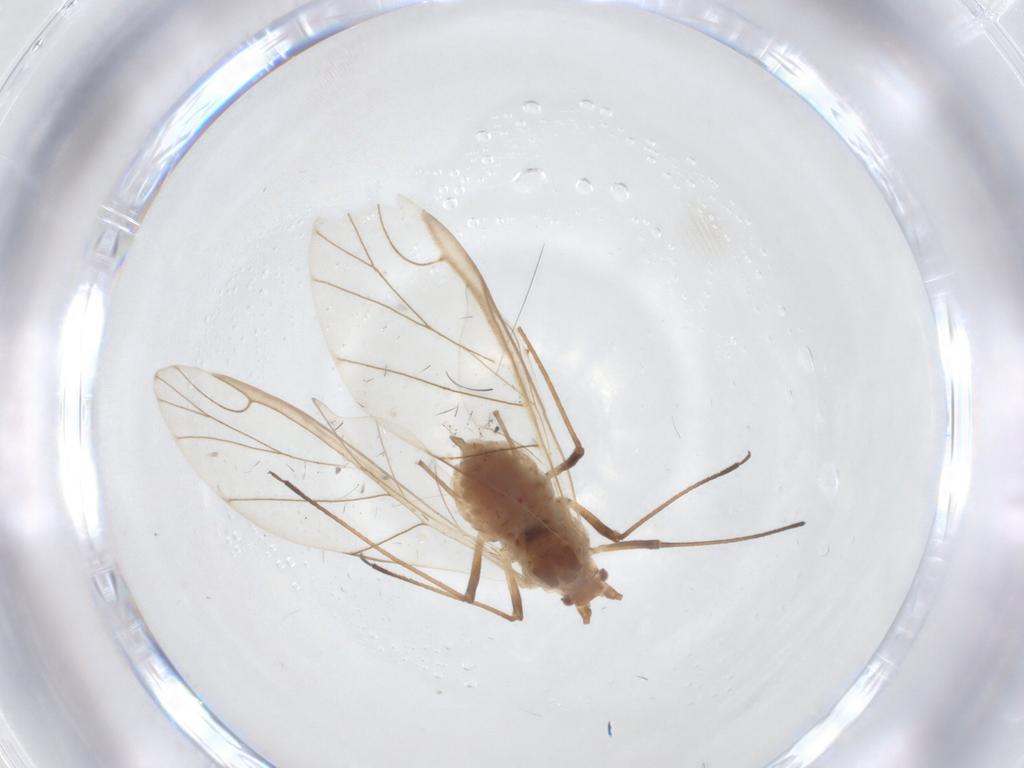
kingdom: Animalia
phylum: Arthropoda
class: Insecta
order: Hemiptera
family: Aphididae
